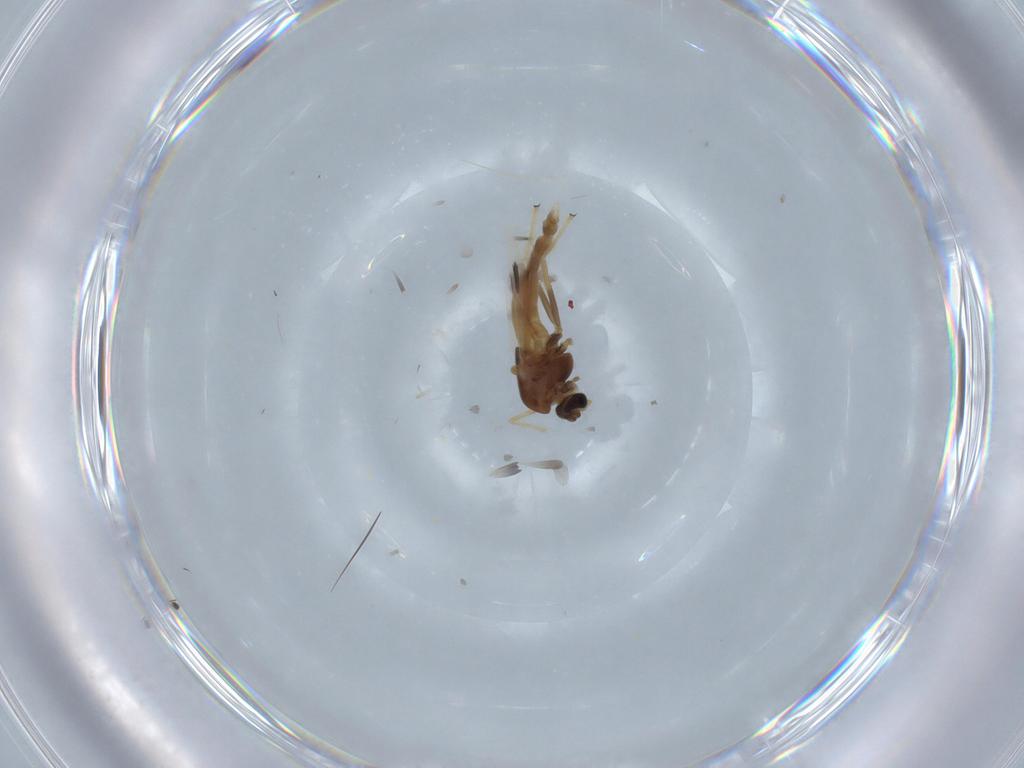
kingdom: Animalia
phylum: Arthropoda
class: Insecta
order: Diptera
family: Chironomidae
